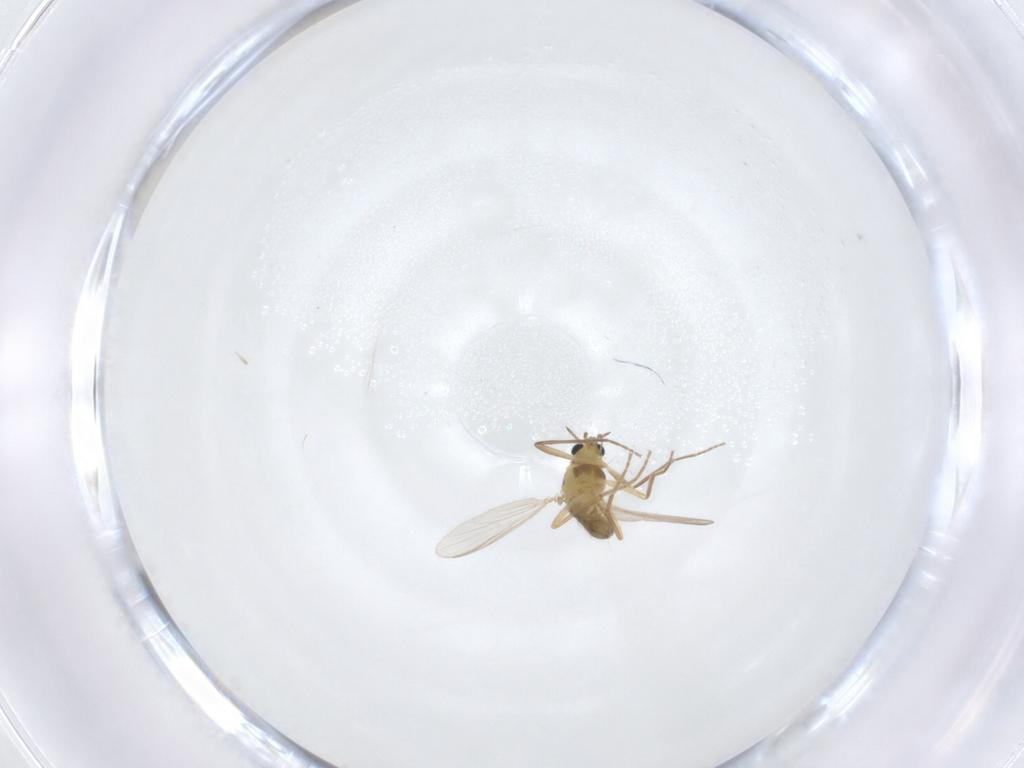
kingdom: Animalia
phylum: Arthropoda
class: Insecta
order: Diptera
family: Chironomidae
